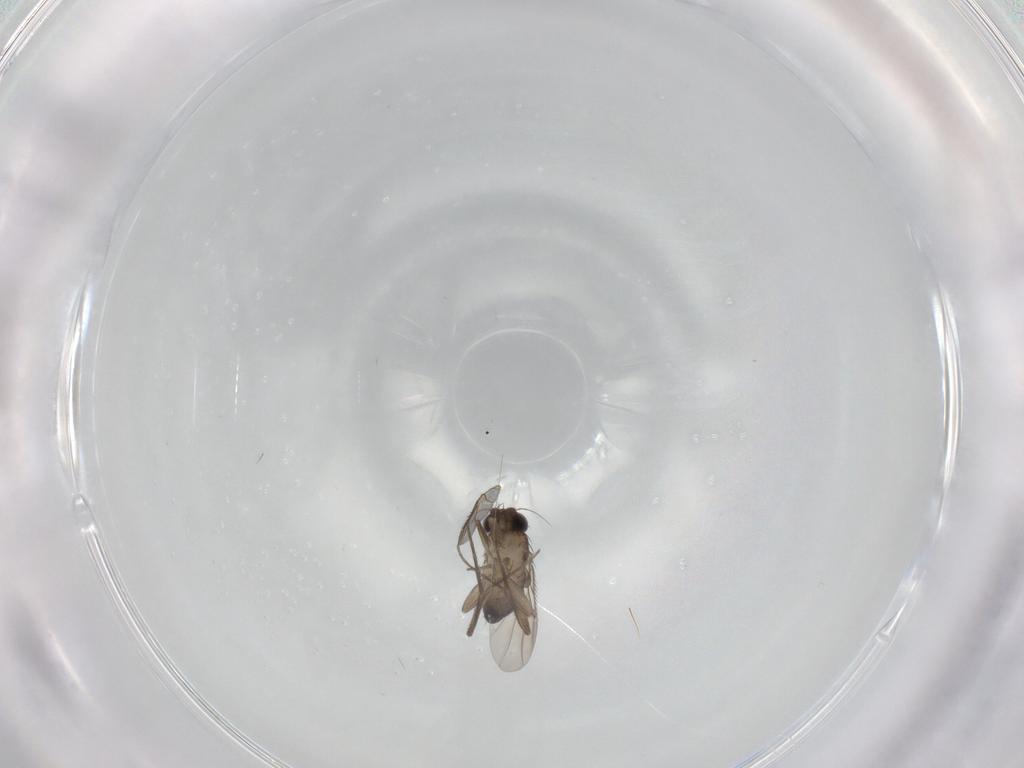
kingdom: Animalia
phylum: Arthropoda
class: Insecta
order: Diptera
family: Phoridae
